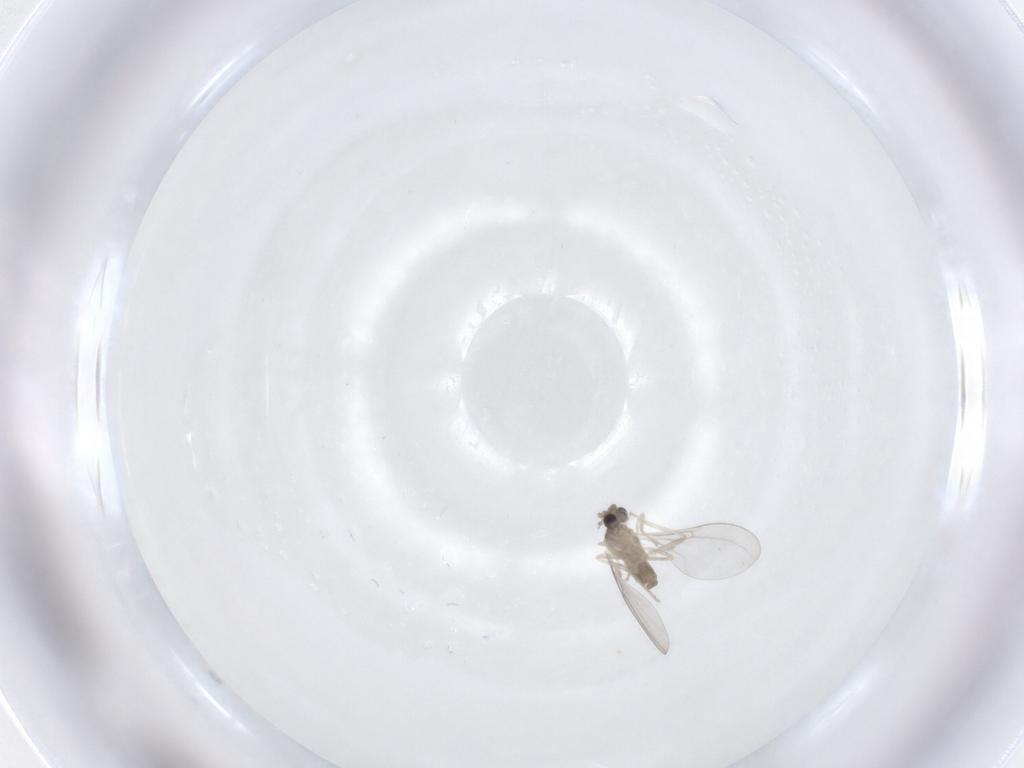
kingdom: Animalia
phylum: Arthropoda
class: Insecta
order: Diptera
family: Cecidomyiidae
